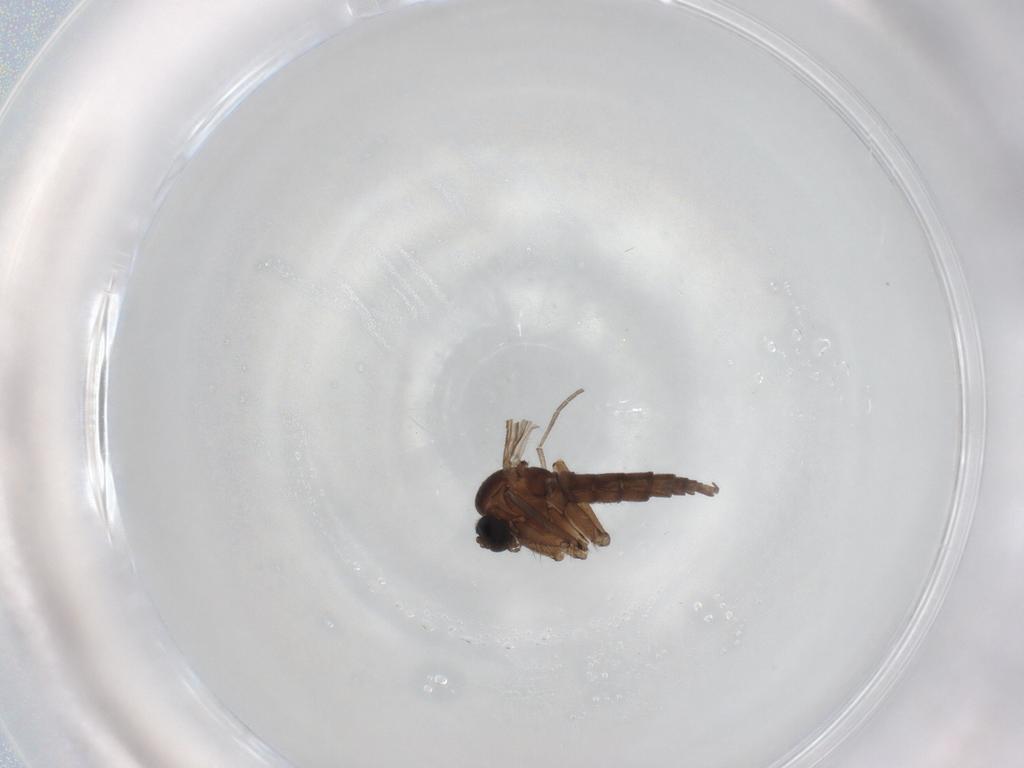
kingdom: Animalia
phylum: Arthropoda
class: Insecta
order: Diptera
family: Sciaridae
